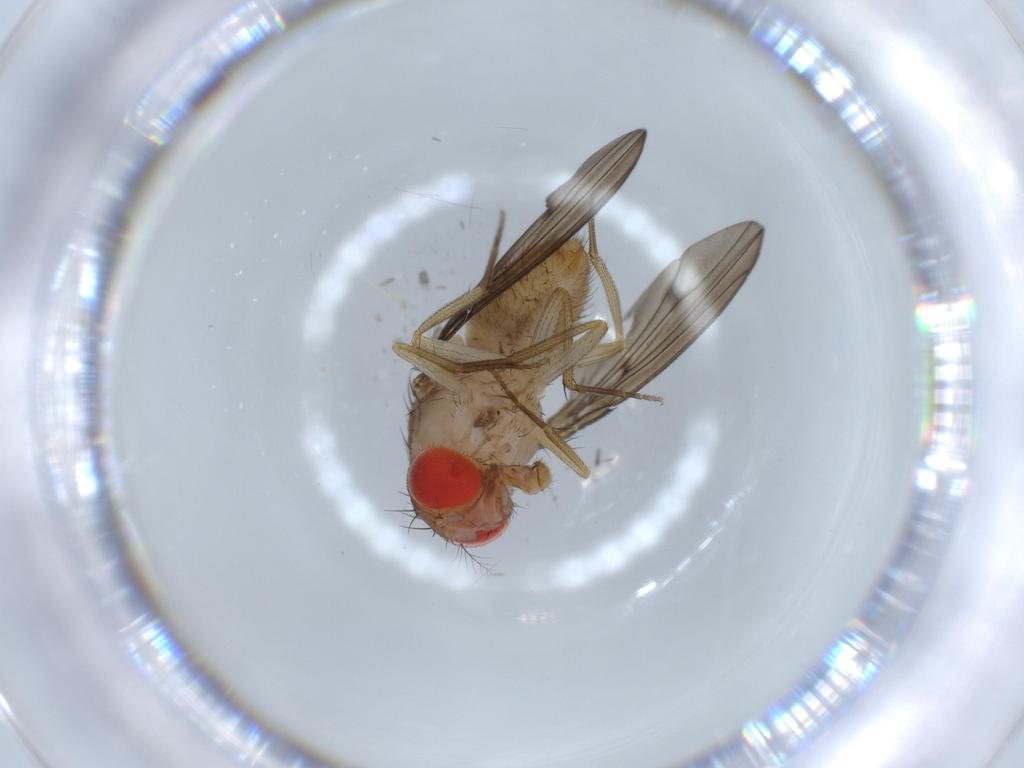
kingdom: Animalia
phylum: Arthropoda
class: Insecta
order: Diptera
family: Drosophilidae
